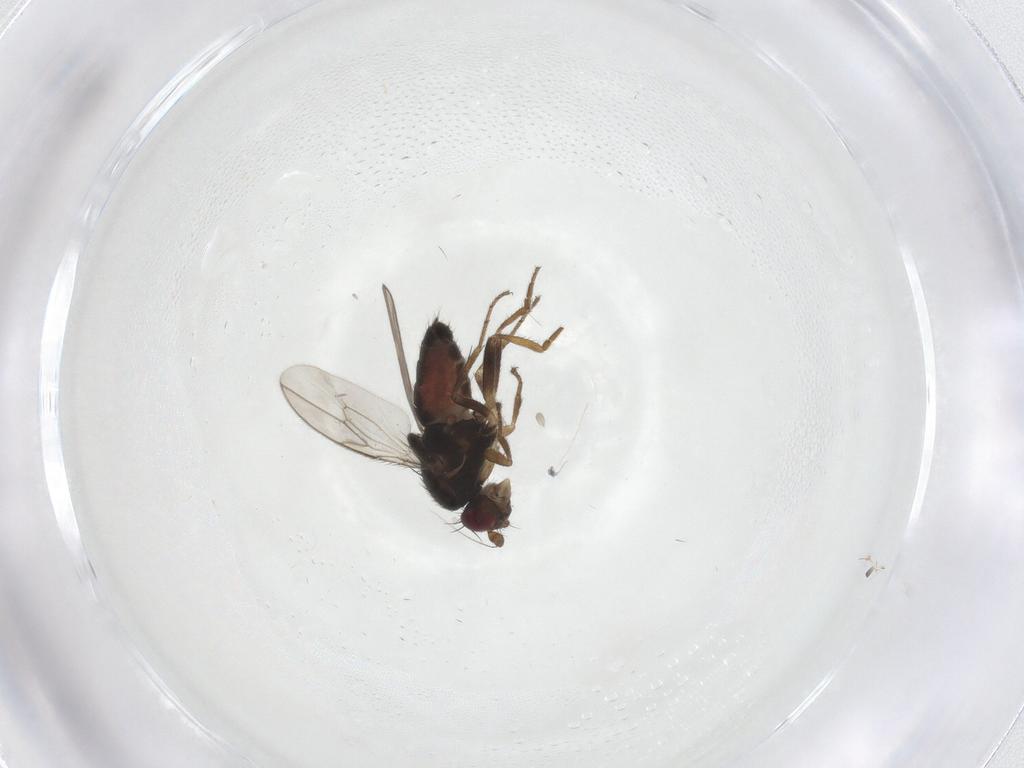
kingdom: Animalia
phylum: Arthropoda
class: Insecta
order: Diptera
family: Sphaeroceridae
